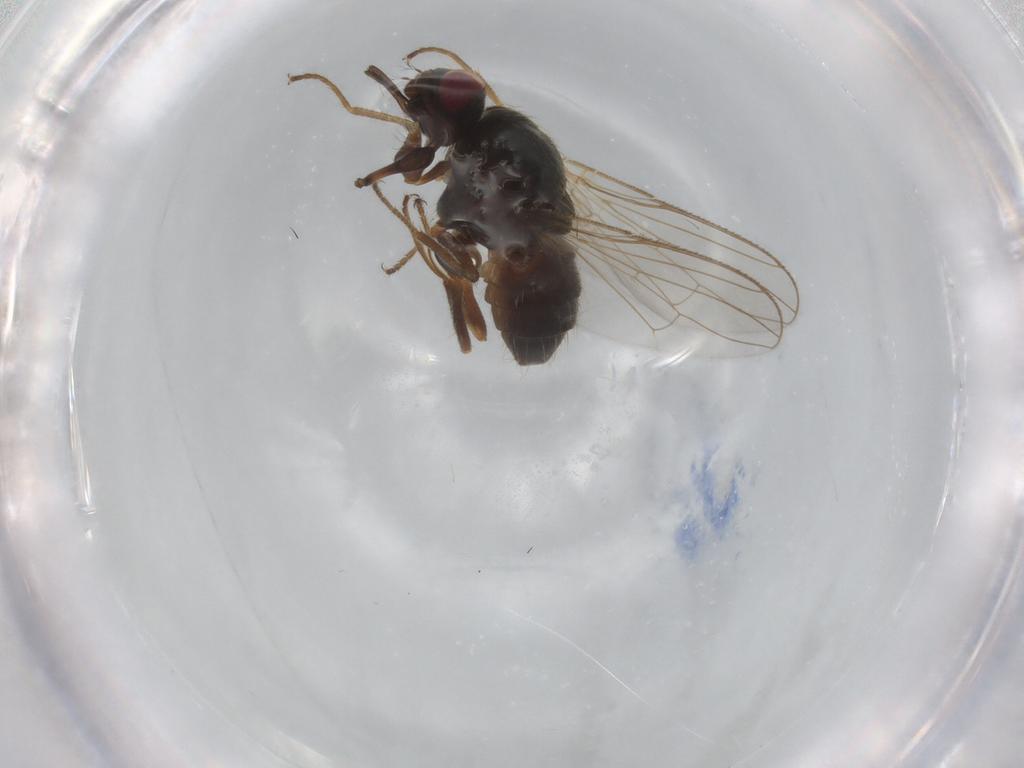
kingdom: Animalia
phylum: Arthropoda
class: Insecta
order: Diptera
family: Muscidae
